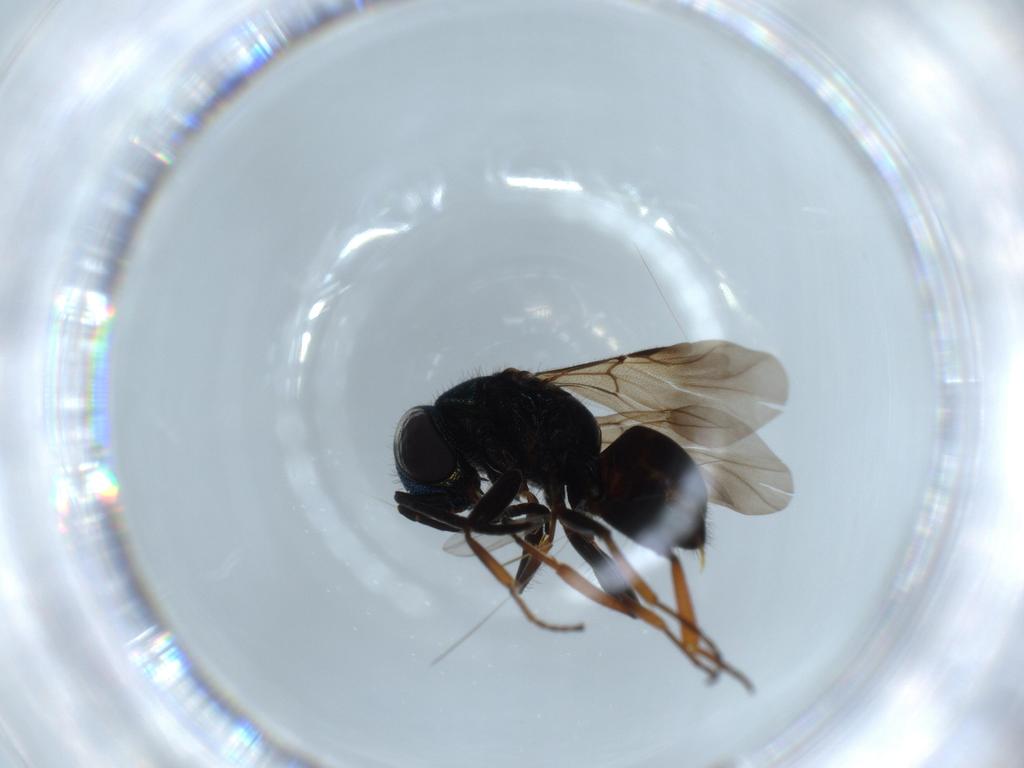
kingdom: Animalia
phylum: Arthropoda
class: Insecta
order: Hymenoptera
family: Chrysididae
